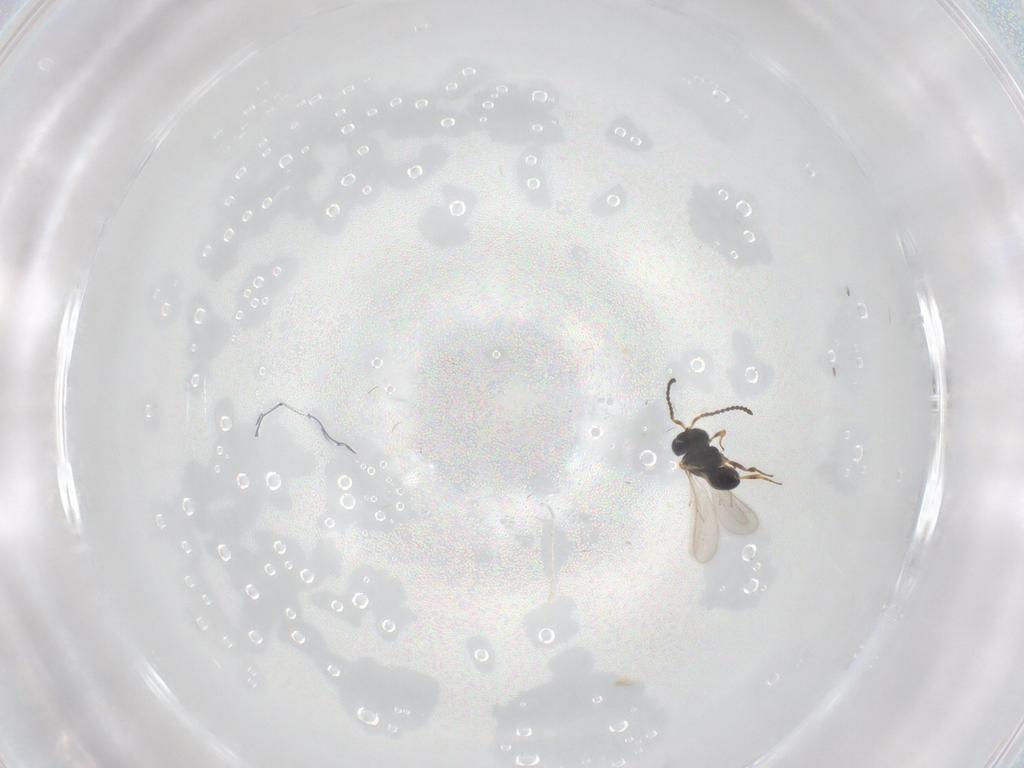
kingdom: Animalia
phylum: Arthropoda
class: Insecta
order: Hymenoptera
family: Scelionidae
